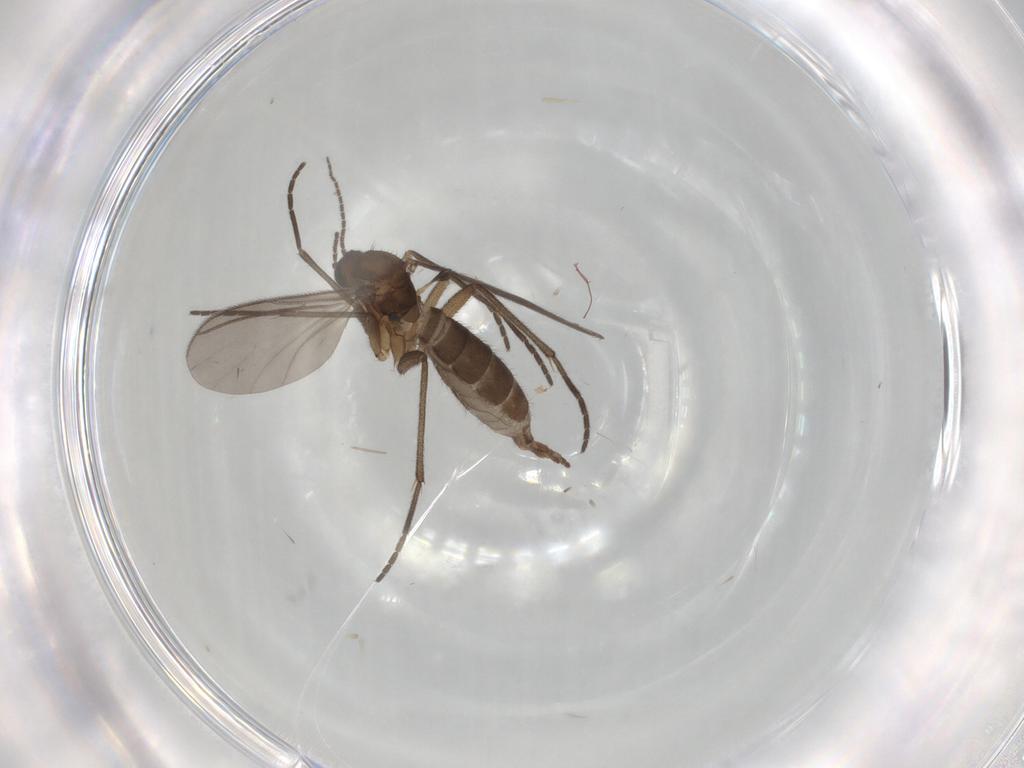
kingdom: Animalia
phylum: Arthropoda
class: Insecta
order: Diptera
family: Sciaridae
